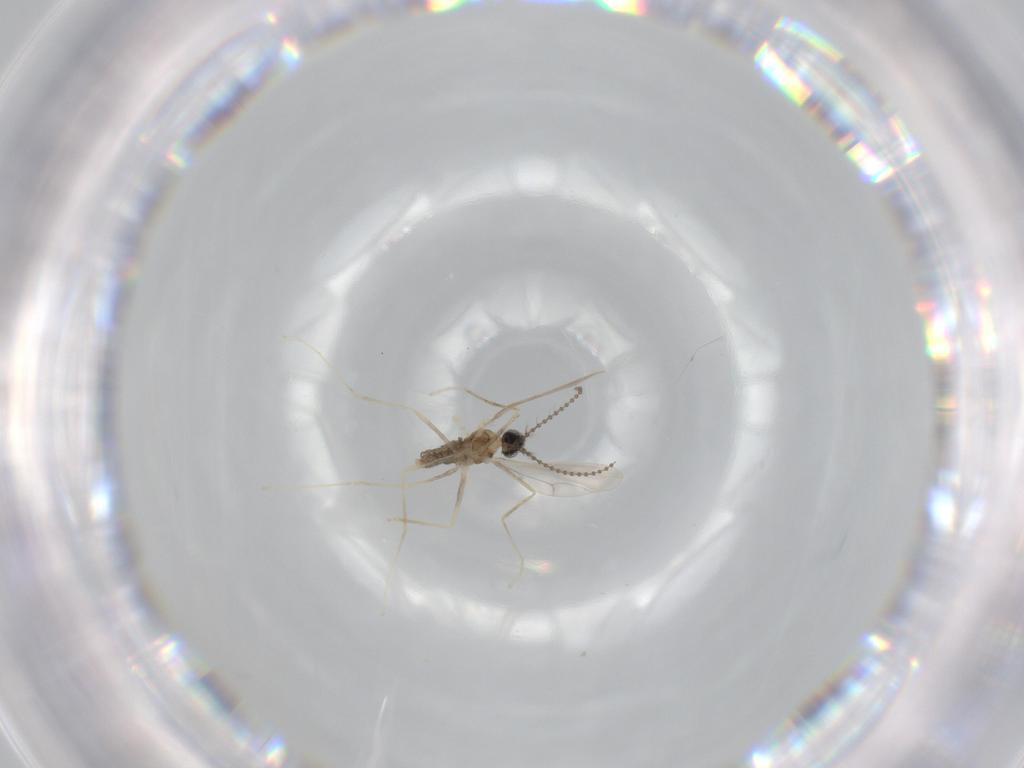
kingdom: Animalia
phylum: Arthropoda
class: Insecta
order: Diptera
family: Cecidomyiidae
